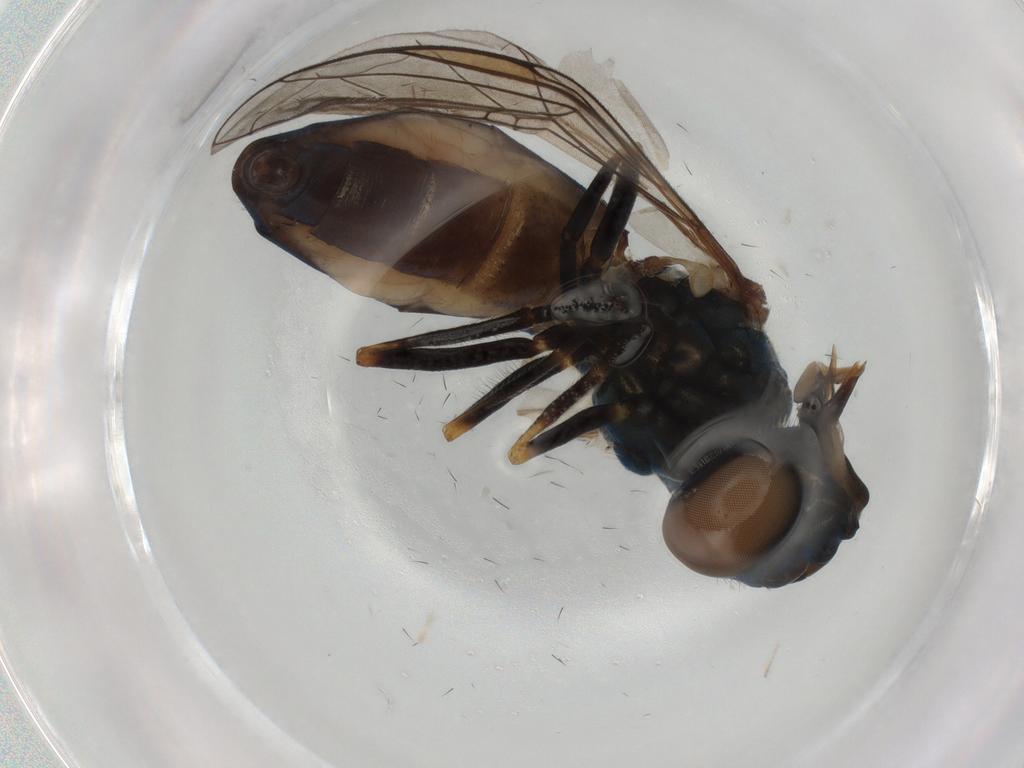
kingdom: Animalia
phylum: Arthropoda
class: Insecta
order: Diptera
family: Syrphidae
